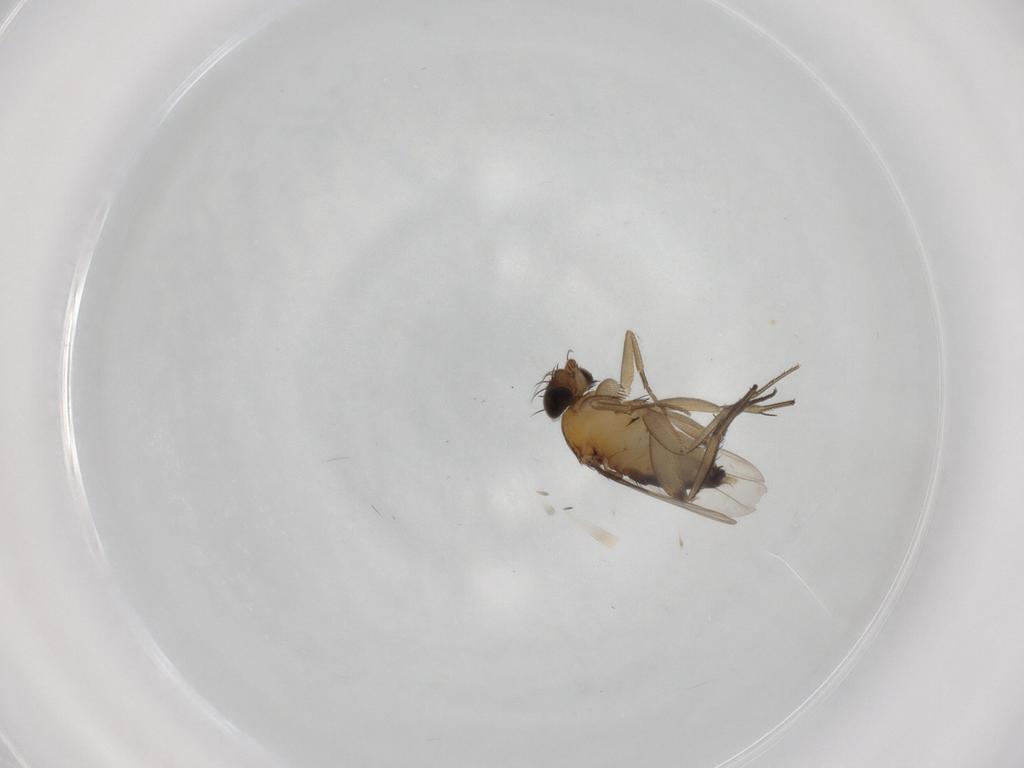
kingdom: Animalia
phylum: Arthropoda
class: Insecta
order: Diptera
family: Phoridae
